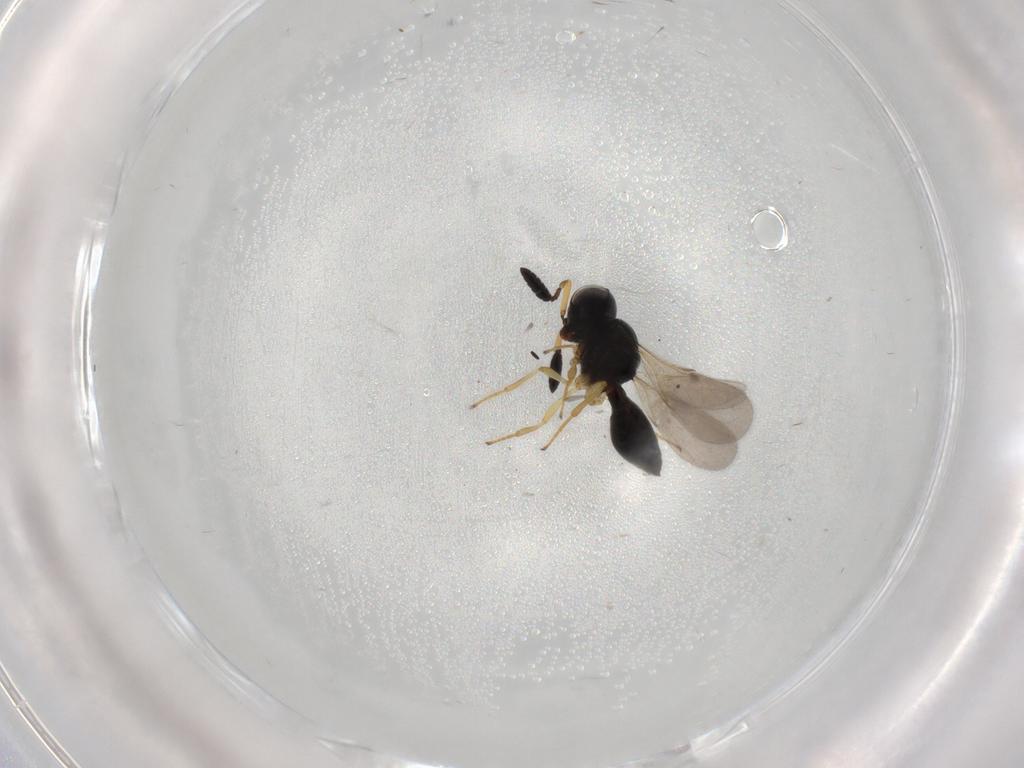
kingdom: Animalia
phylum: Arthropoda
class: Insecta
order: Hymenoptera
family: Scelionidae
